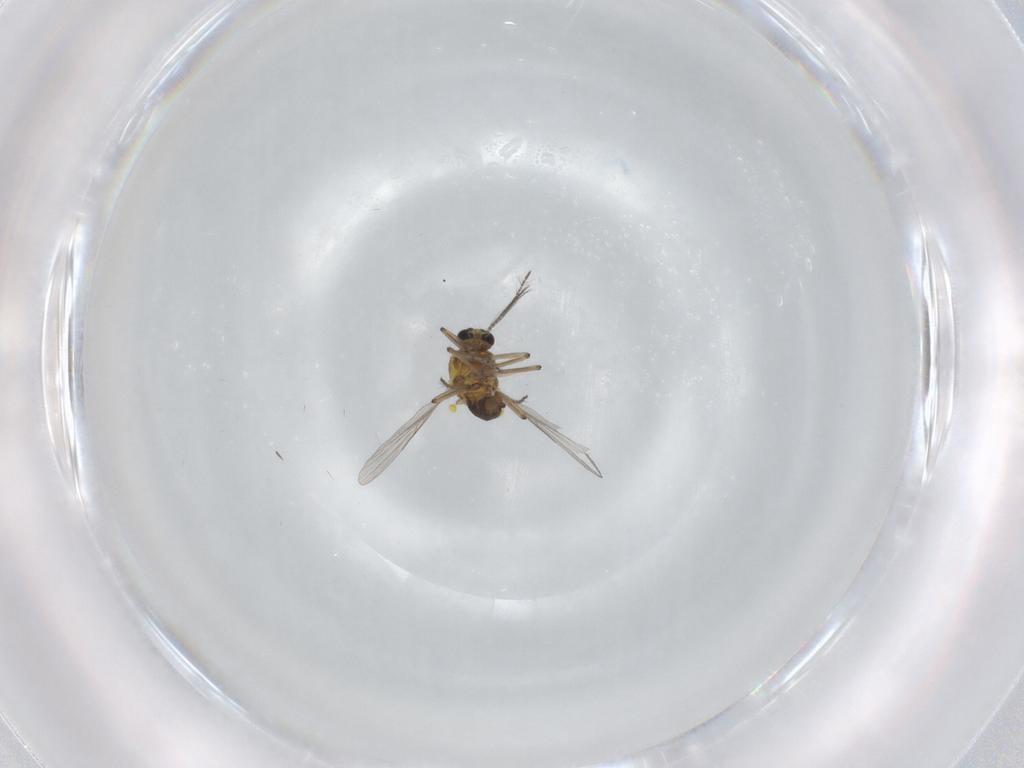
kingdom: Animalia
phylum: Arthropoda
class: Insecta
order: Diptera
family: Ceratopogonidae
